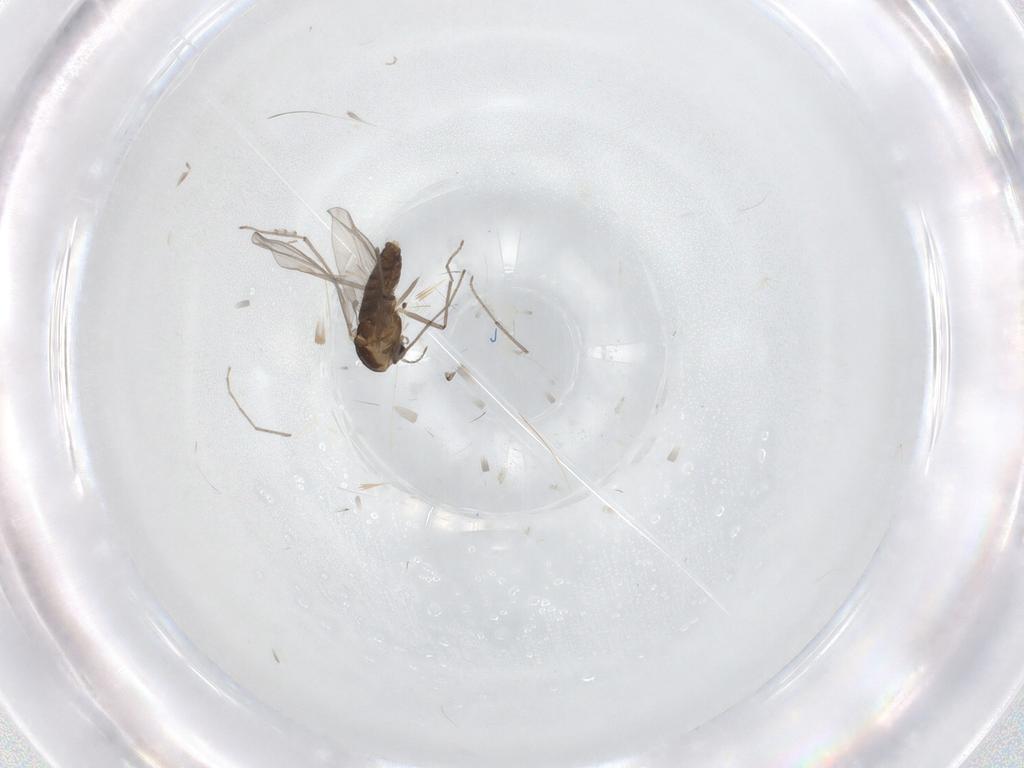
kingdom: Animalia
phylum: Arthropoda
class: Insecta
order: Diptera
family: Chironomidae
